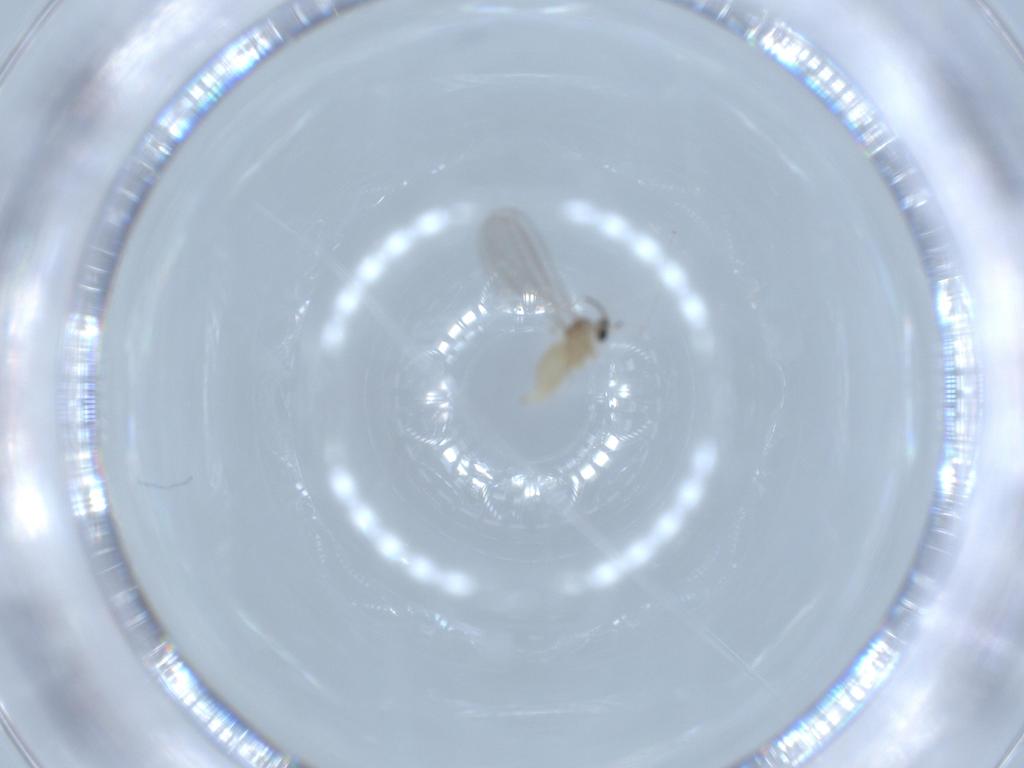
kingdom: Animalia
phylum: Arthropoda
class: Insecta
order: Diptera
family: Cecidomyiidae
